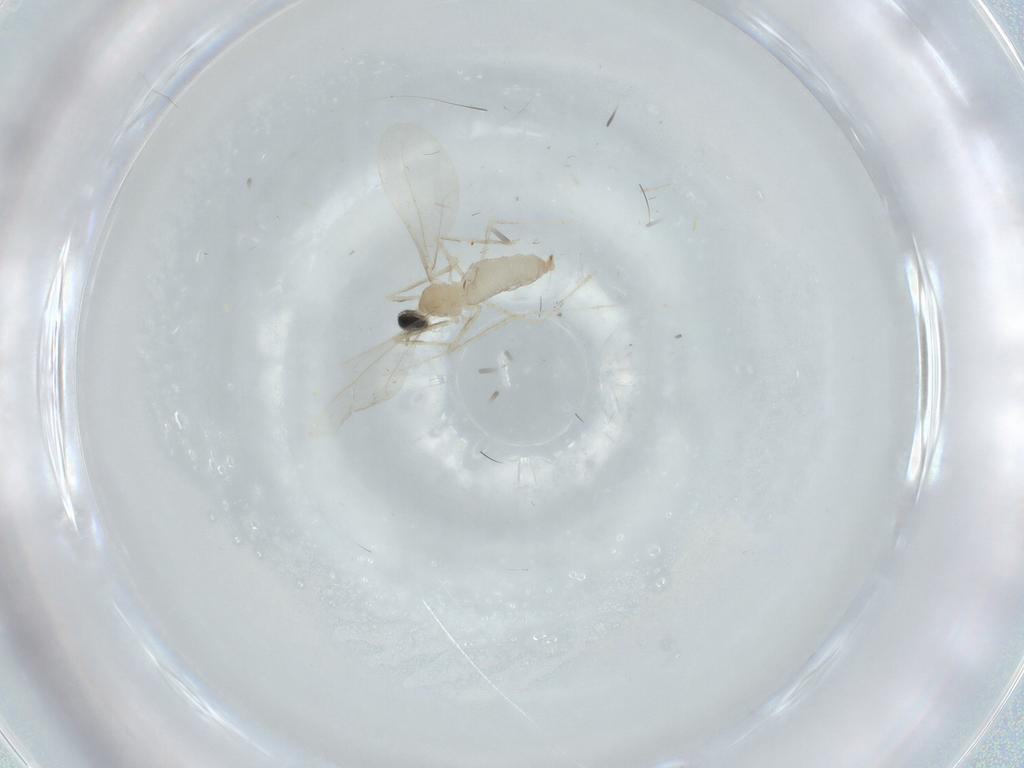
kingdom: Animalia
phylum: Arthropoda
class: Insecta
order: Diptera
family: Cecidomyiidae
